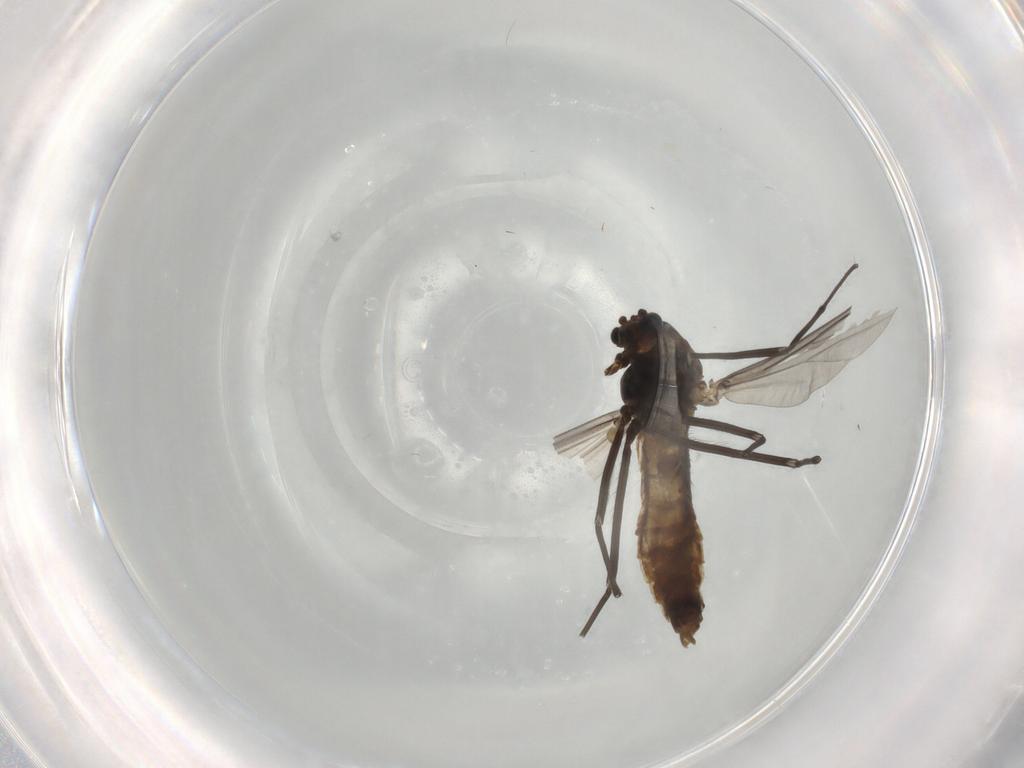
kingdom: Animalia
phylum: Arthropoda
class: Insecta
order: Diptera
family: Chironomidae
